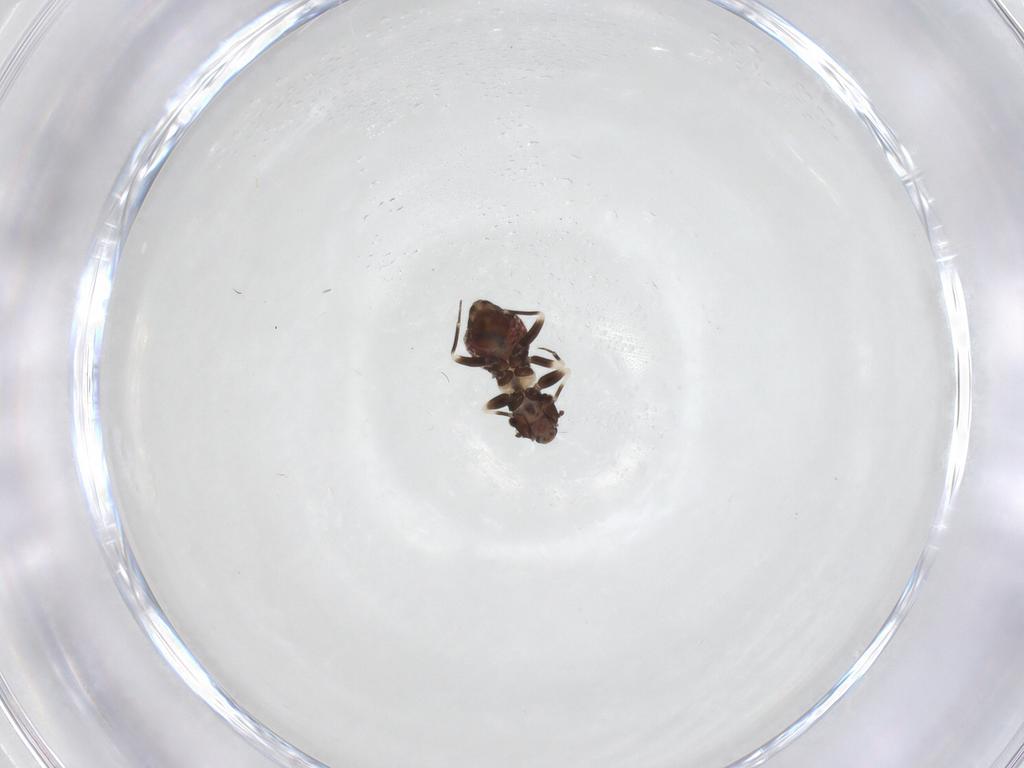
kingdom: Animalia
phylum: Arthropoda
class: Insecta
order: Psocodea
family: Lepidopsocidae
